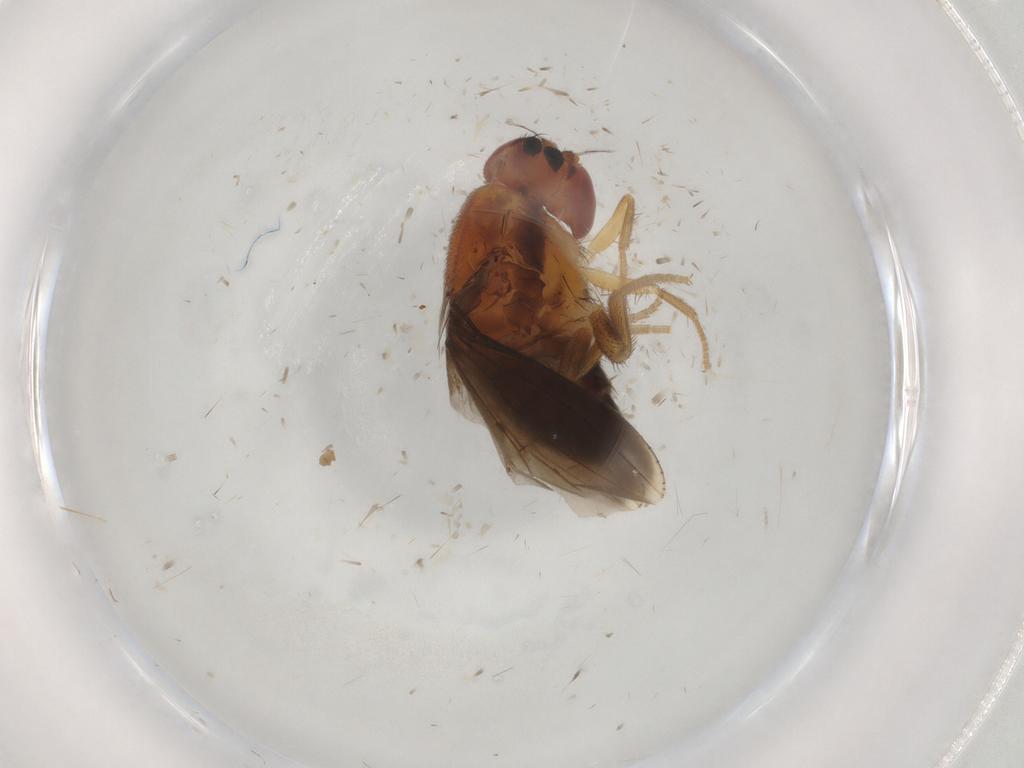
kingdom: Animalia
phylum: Arthropoda
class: Insecta
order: Diptera
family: Drosophilidae
